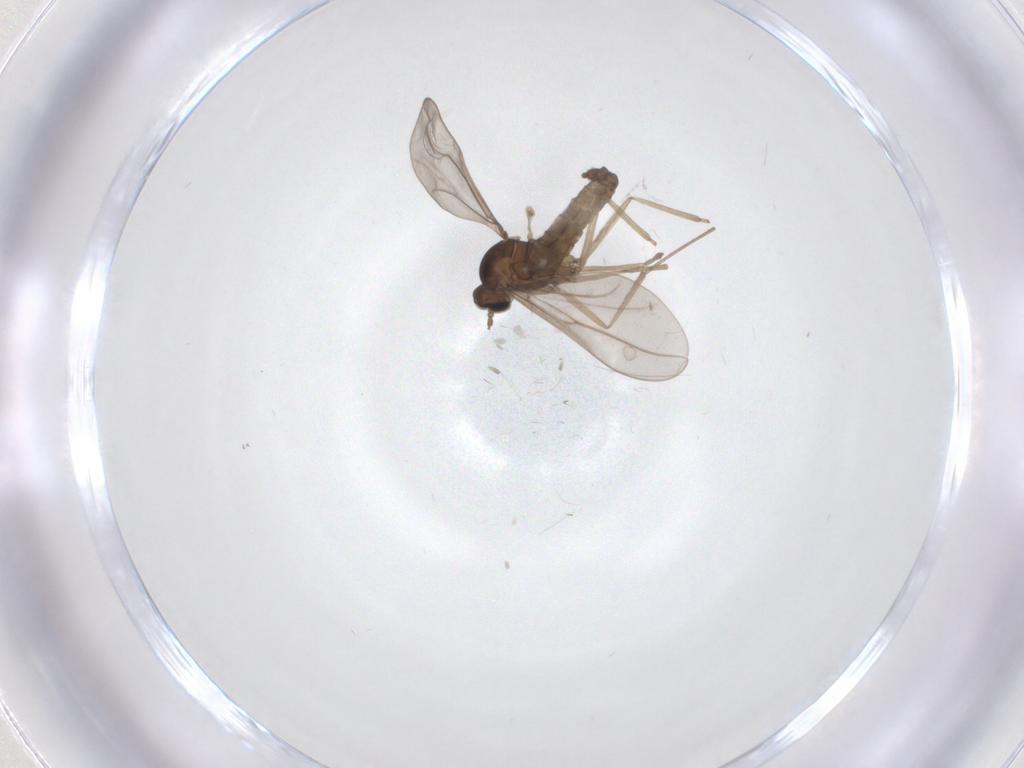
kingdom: Animalia
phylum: Arthropoda
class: Insecta
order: Diptera
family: Cecidomyiidae
